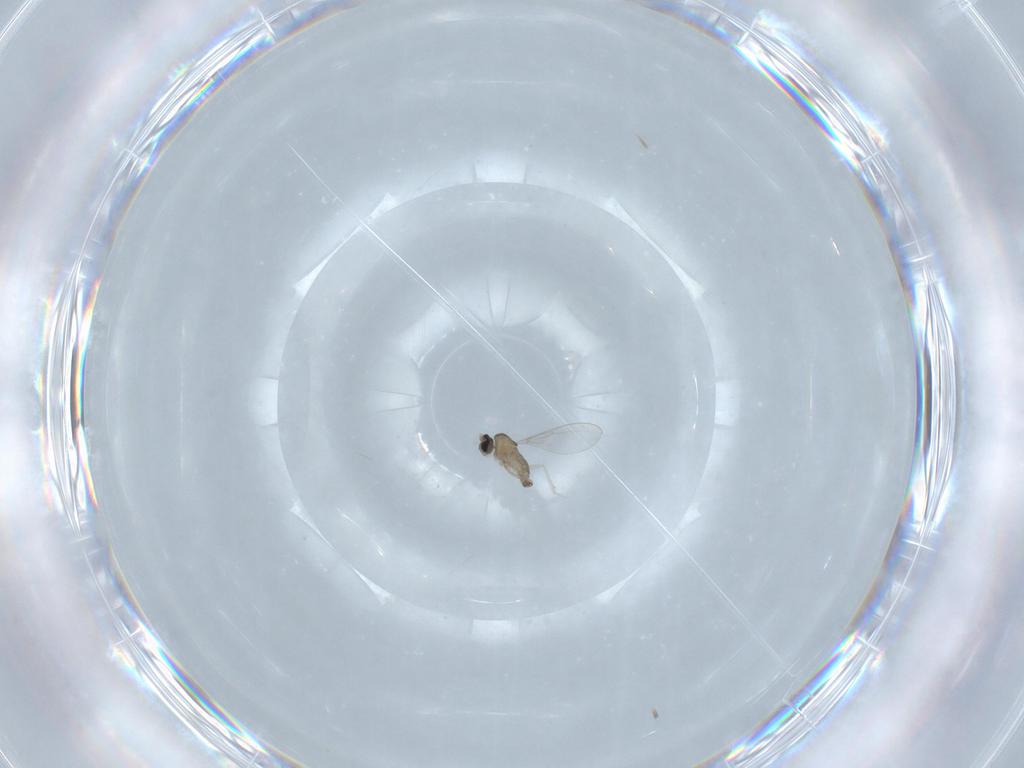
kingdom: Animalia
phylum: Arthropoda
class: Insecta
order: Diptera
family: Cecidomyiidae
